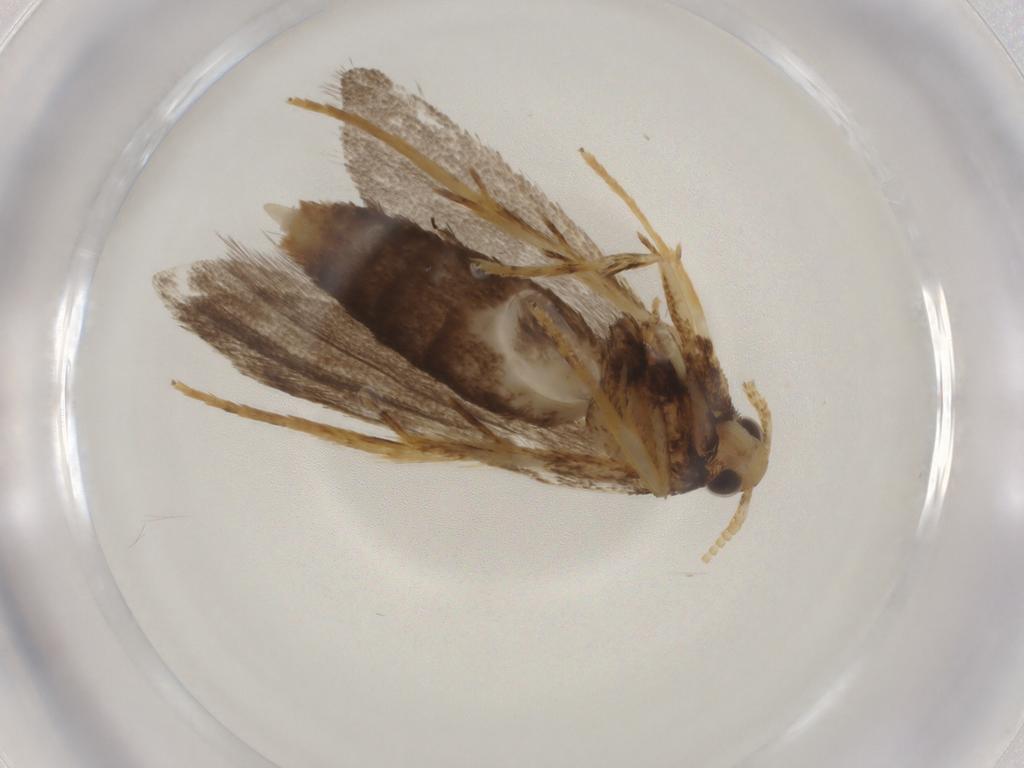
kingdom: Animalia
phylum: Arthropoda
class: Insecta
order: Lepidoptera
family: Lecithoceridae
